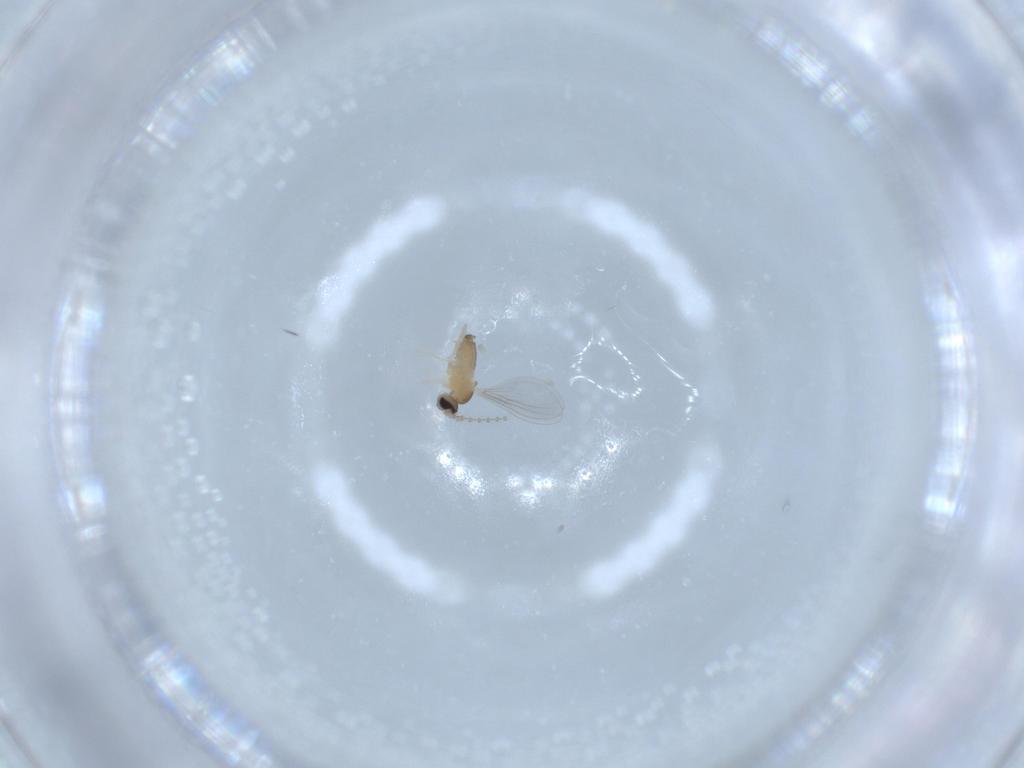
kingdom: Animalia
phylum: Arthropoda
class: Insecta
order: Diptera
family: Cecidomyiidae
